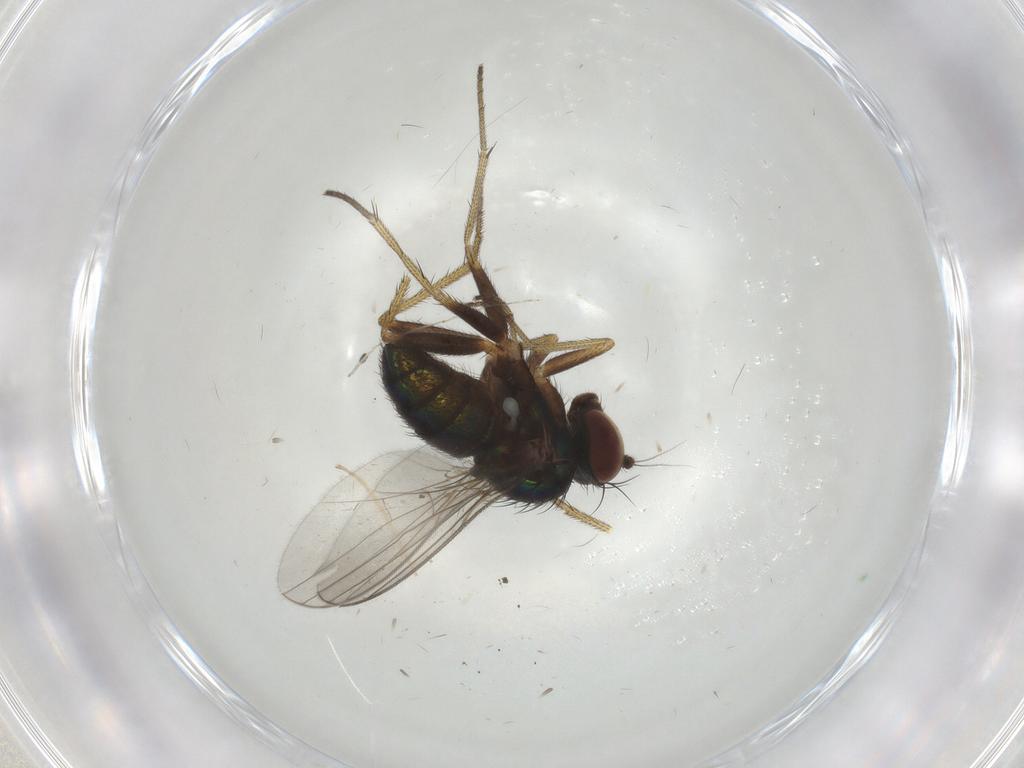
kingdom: Animalia
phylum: Arthropoda
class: Insecta
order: Diptera
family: Dolichopodidae
